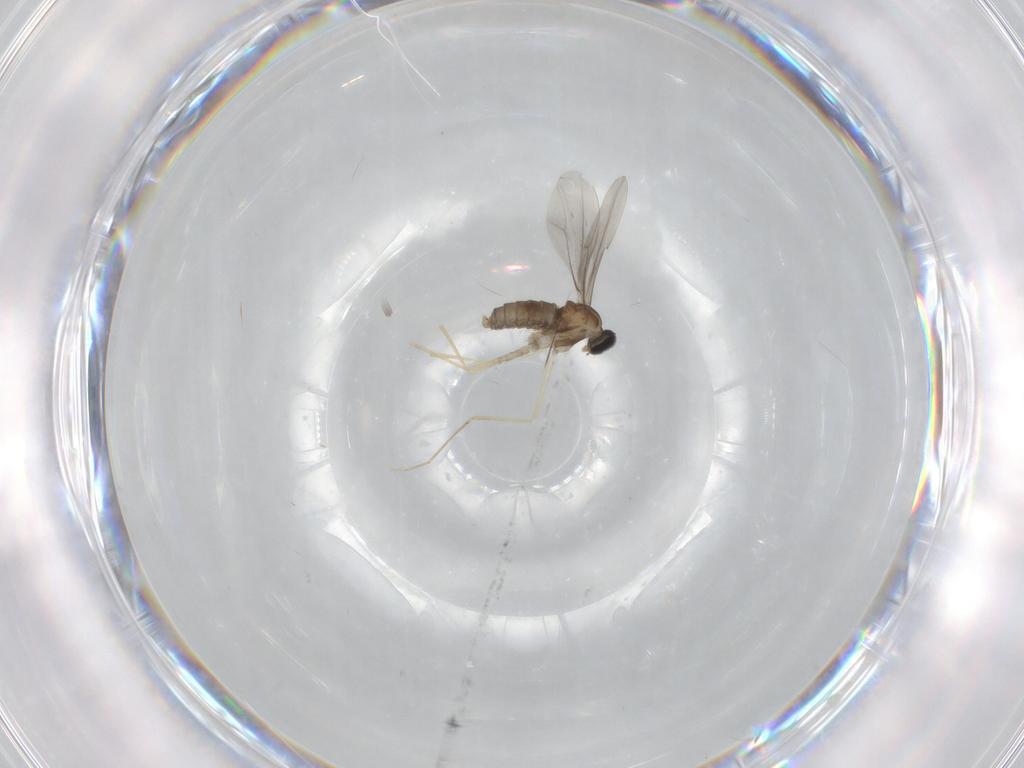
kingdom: Animalia
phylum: Arthropoda
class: Insecta
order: Diptera
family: Cecidomyiidae
